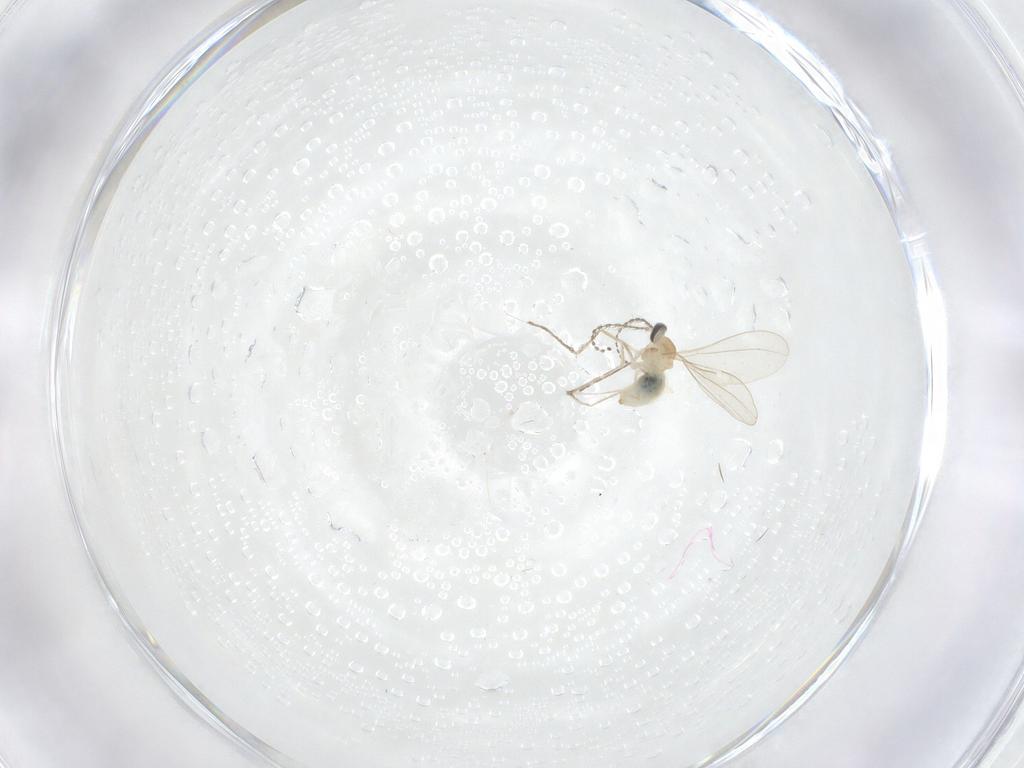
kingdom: Animalia
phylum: Arthropoda
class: Insecta
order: Diptera
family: Cecidomyiidae
